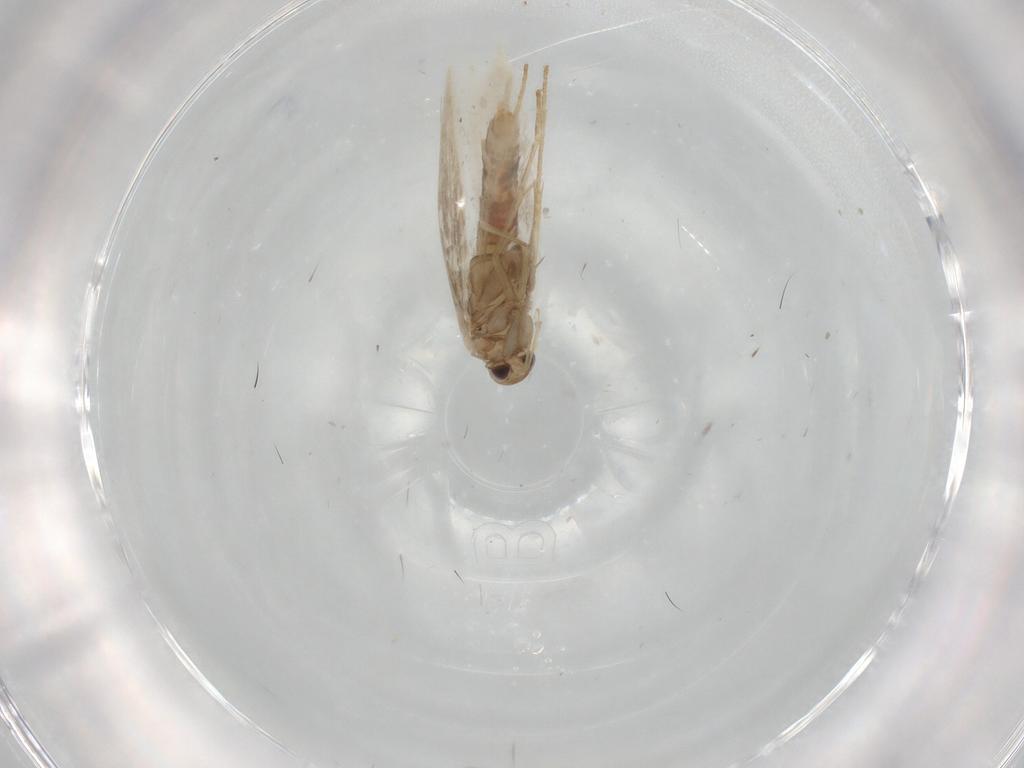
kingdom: Animalia
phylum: Arthropoda
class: Insecta
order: Lepidoptera
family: Gracillariidae
